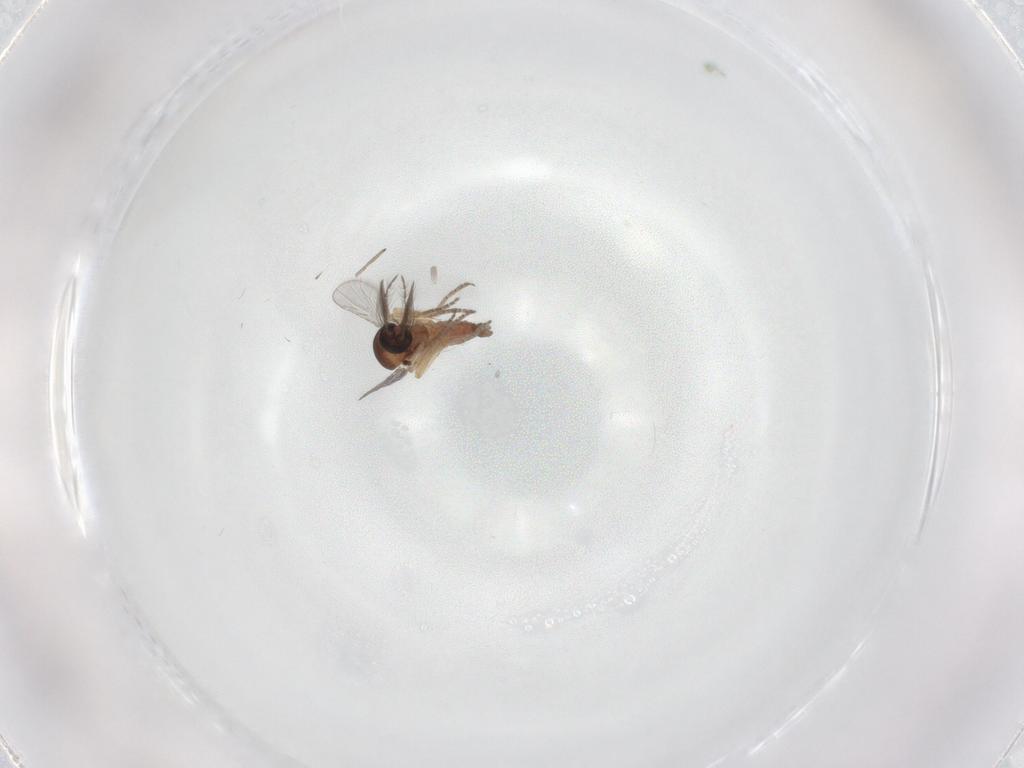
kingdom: Animalia
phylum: Arthropoda
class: Insecta
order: Diptera
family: Sciaridae
